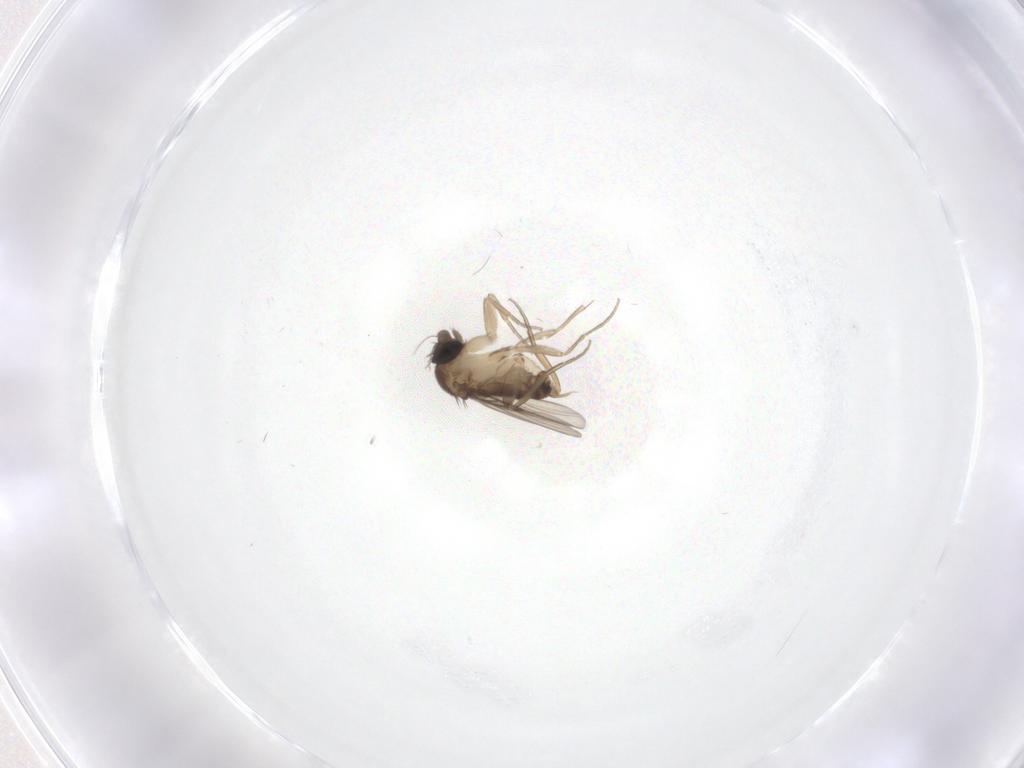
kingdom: Animalia
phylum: Arthropoda
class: Insecta
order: Diptera
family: Phoridae
